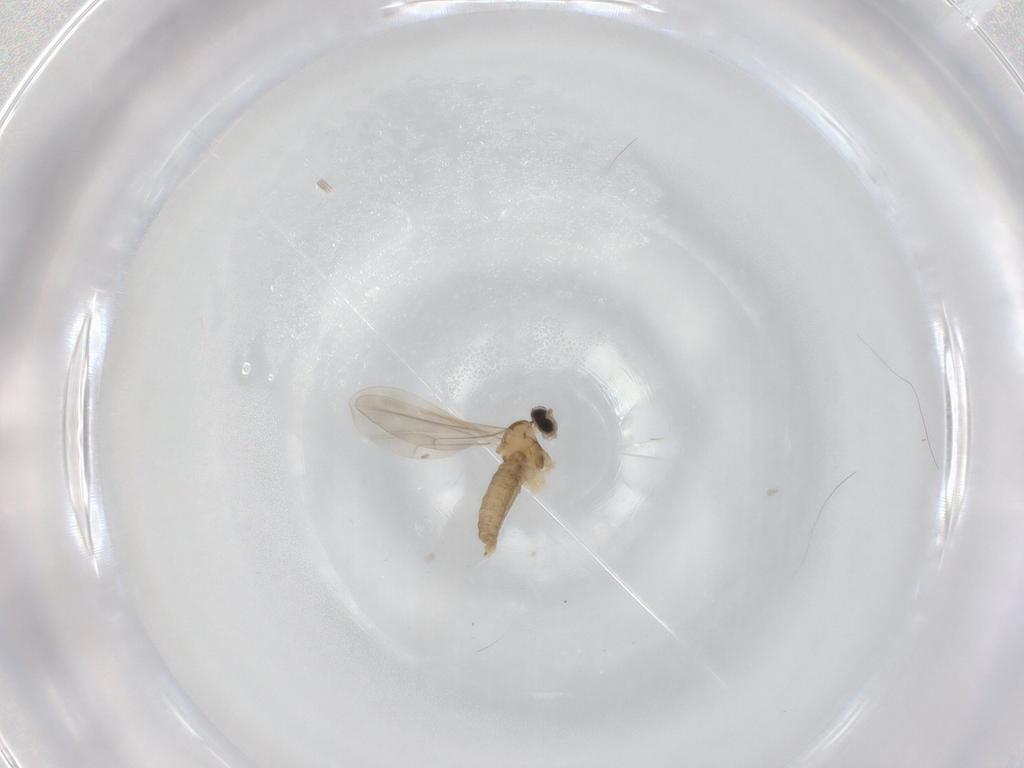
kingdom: Animalia
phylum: Arthropoda
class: Insecta
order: Diptera
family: Cecidomyiidae
